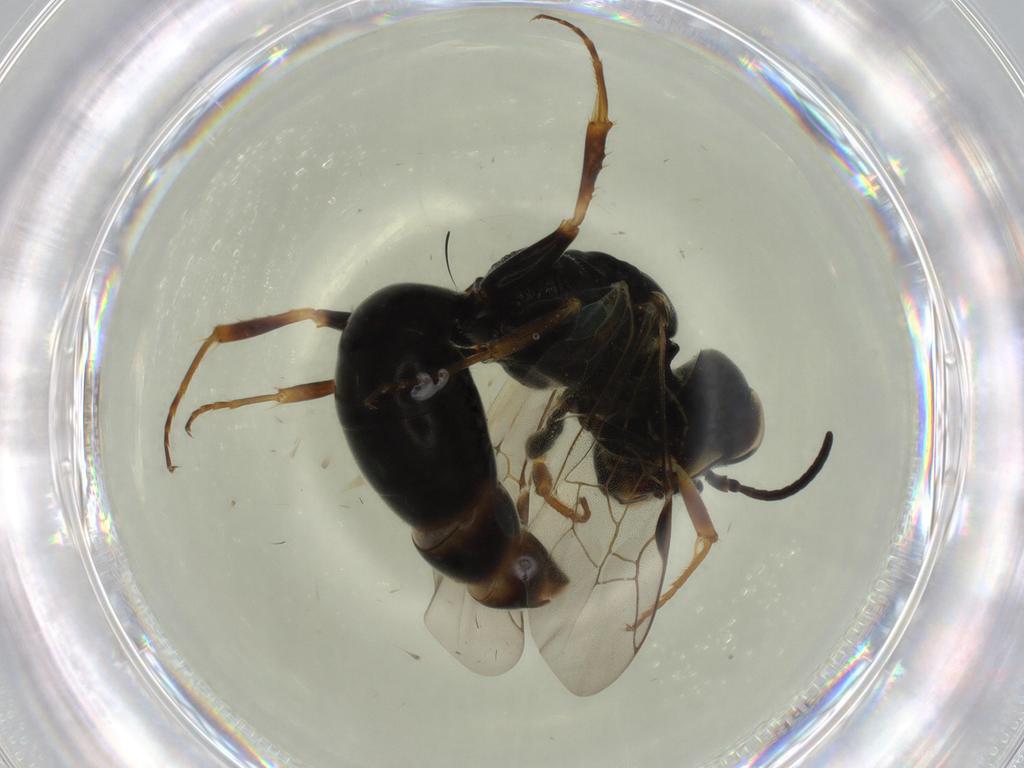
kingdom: Animalia
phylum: Arthropoda
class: Insecta
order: Hymenoptera
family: Crabronidae
